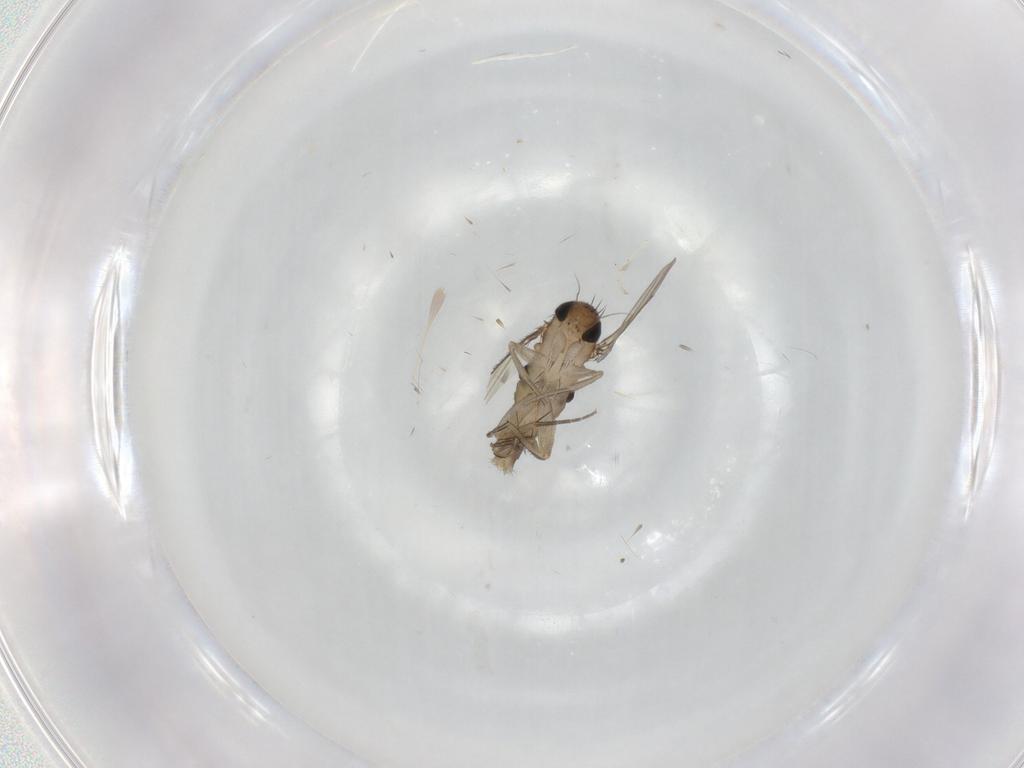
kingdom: Animalia
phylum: Arthropoda
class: Insecta
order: Diptera
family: Phoridae
